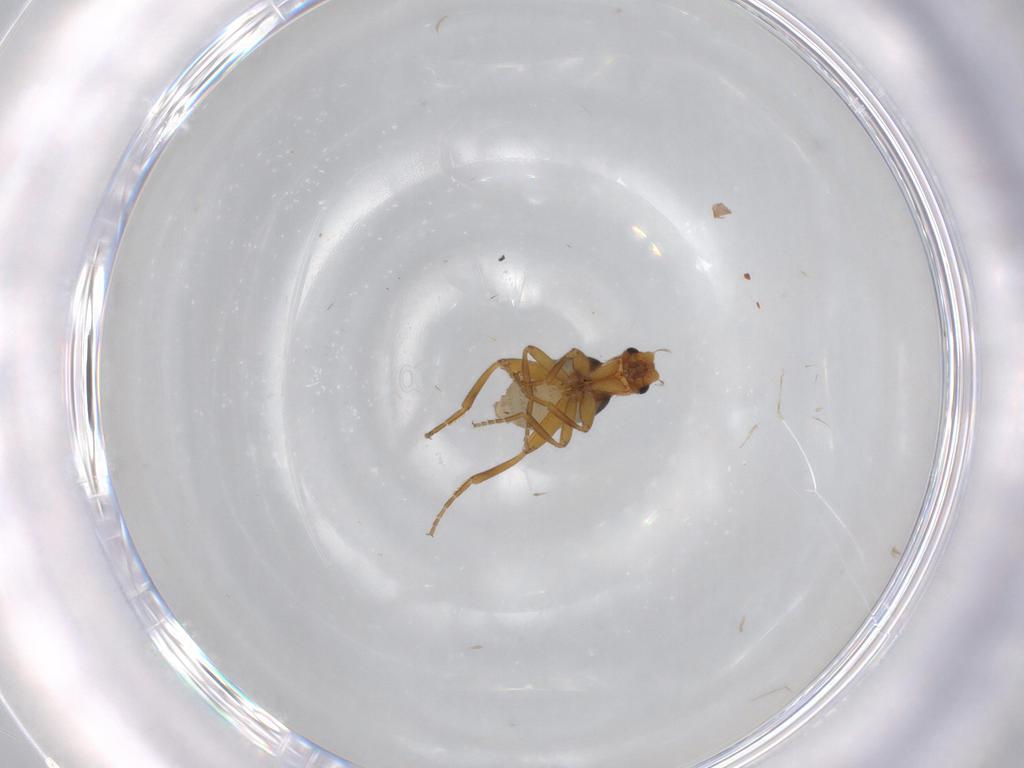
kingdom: Animalia
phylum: Arthropoda
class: Insecta
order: Diptera
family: Phoridae
